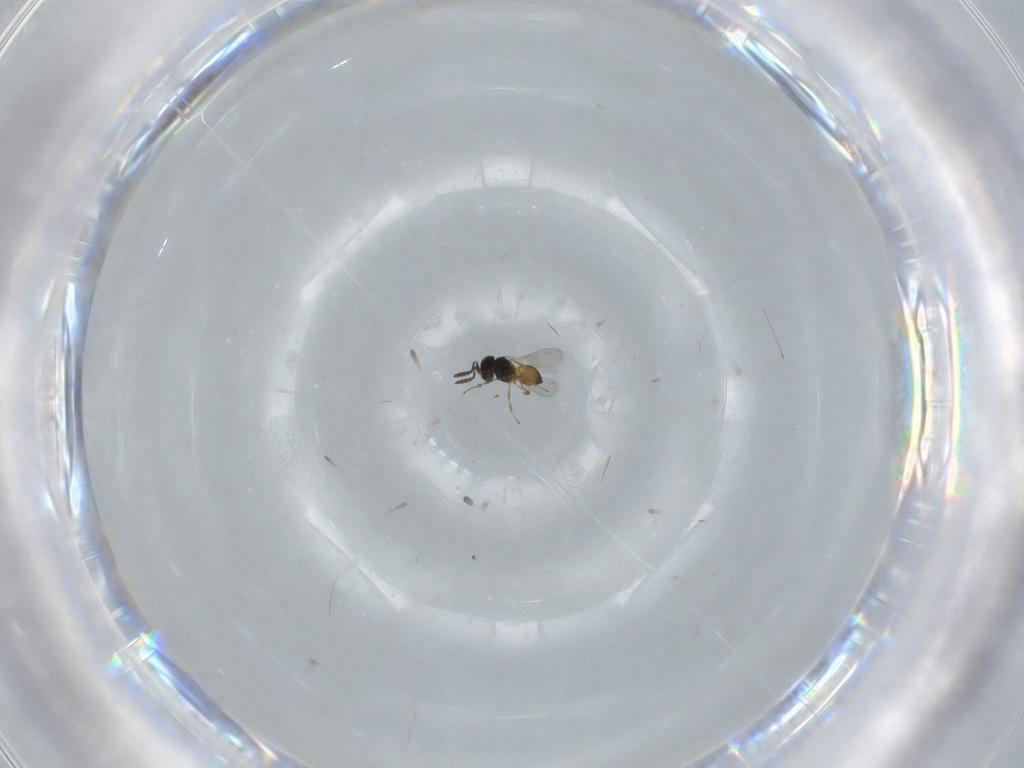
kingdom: Animalia
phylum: Arthropoda
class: Insecta
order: Hymenoptera
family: Scelionidae
